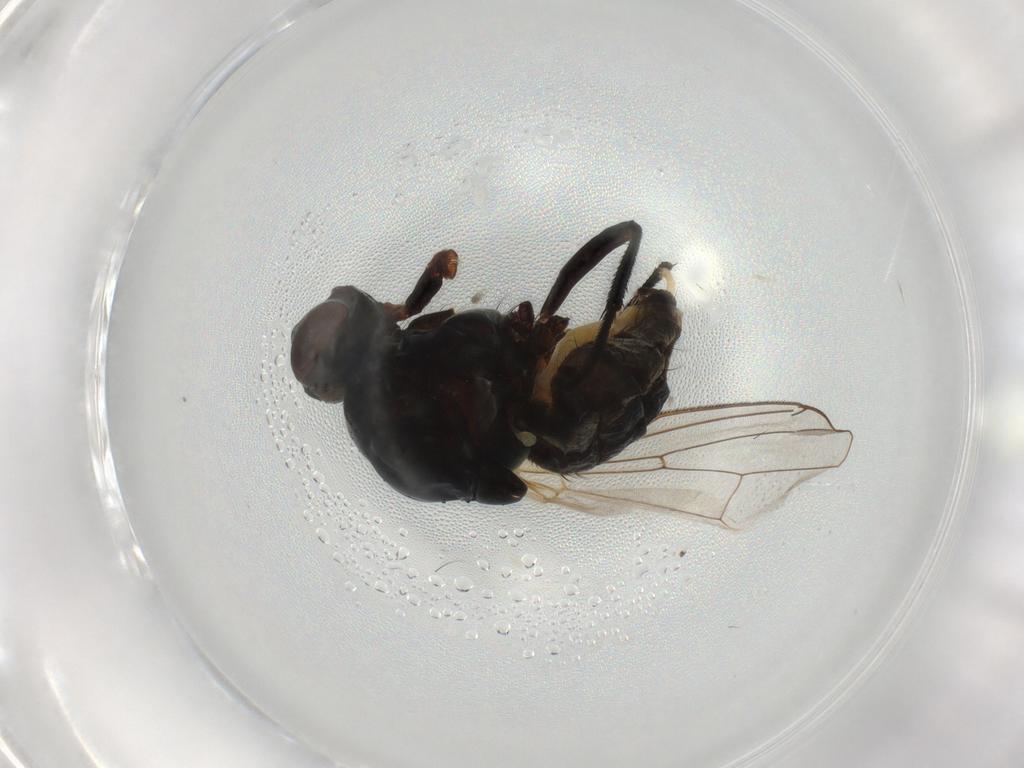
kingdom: Animalia
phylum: Arthropoda
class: Insecta
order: Diptera
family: Anthomyiidae
